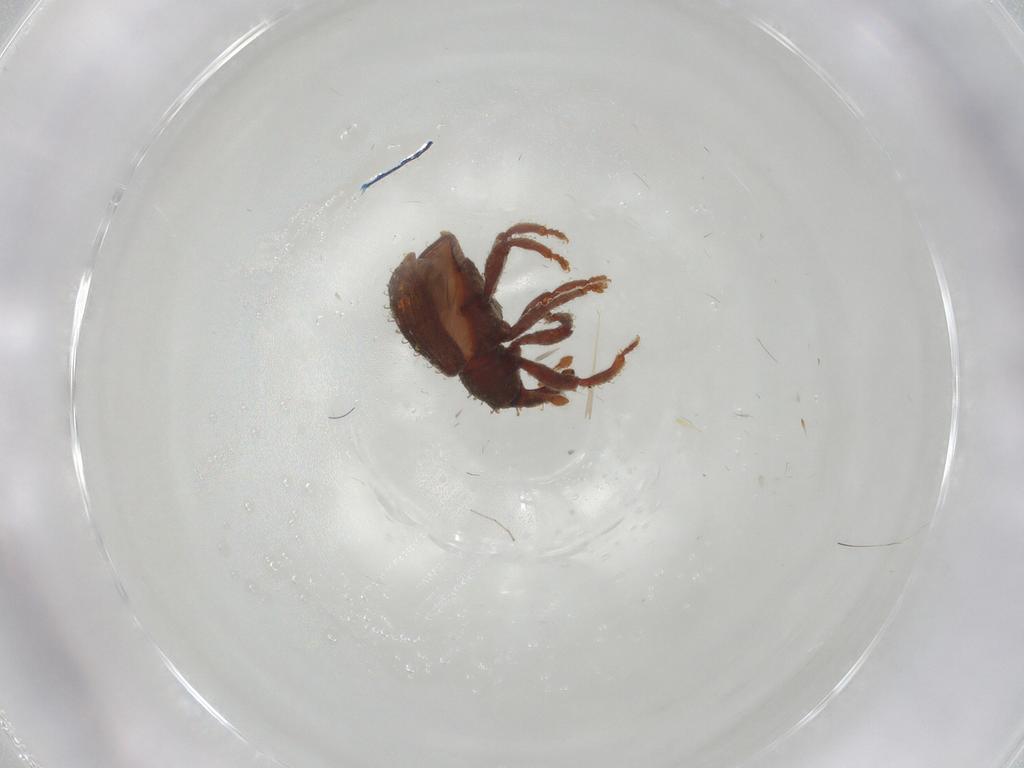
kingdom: Animalia
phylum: Arthropoda
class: Insecta
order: Coleoptera
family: Curculionidae
